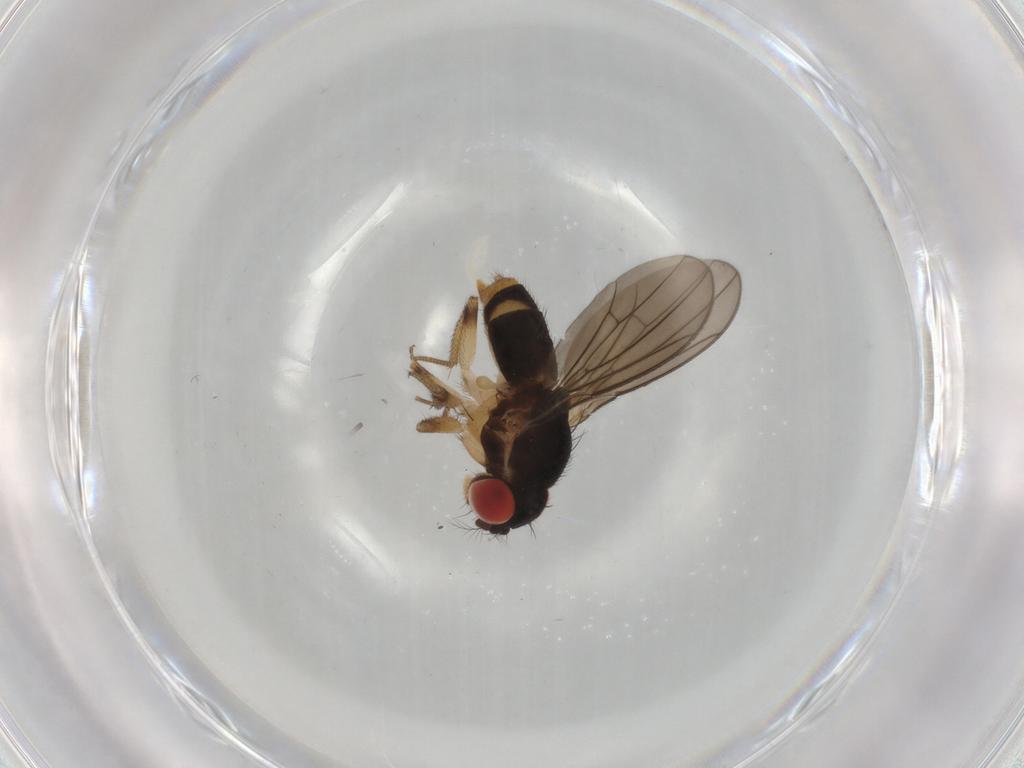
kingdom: Animalia
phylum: Arthropoda
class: Insecta
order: Diptera
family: Drosophilidae
